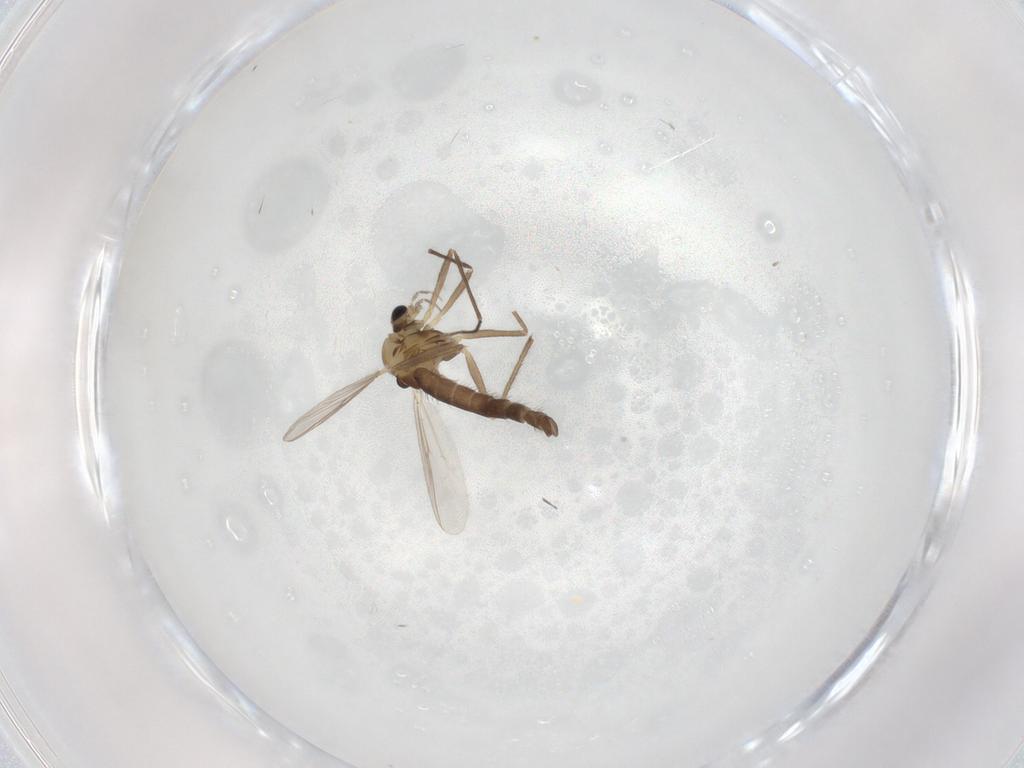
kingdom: Animalia
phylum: Arthropoda
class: Insecta
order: Diptera
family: Chironomidae
